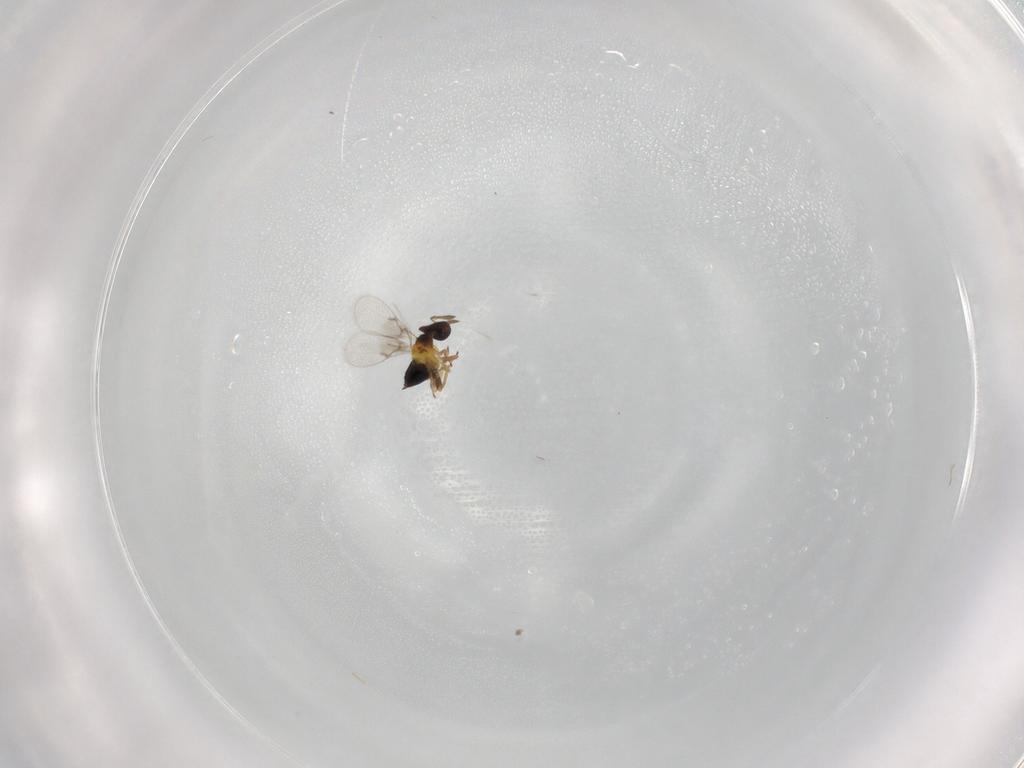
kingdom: Animalia
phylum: Arthropoda
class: Insecta
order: Hymenoptera
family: Trichogrammatidae
